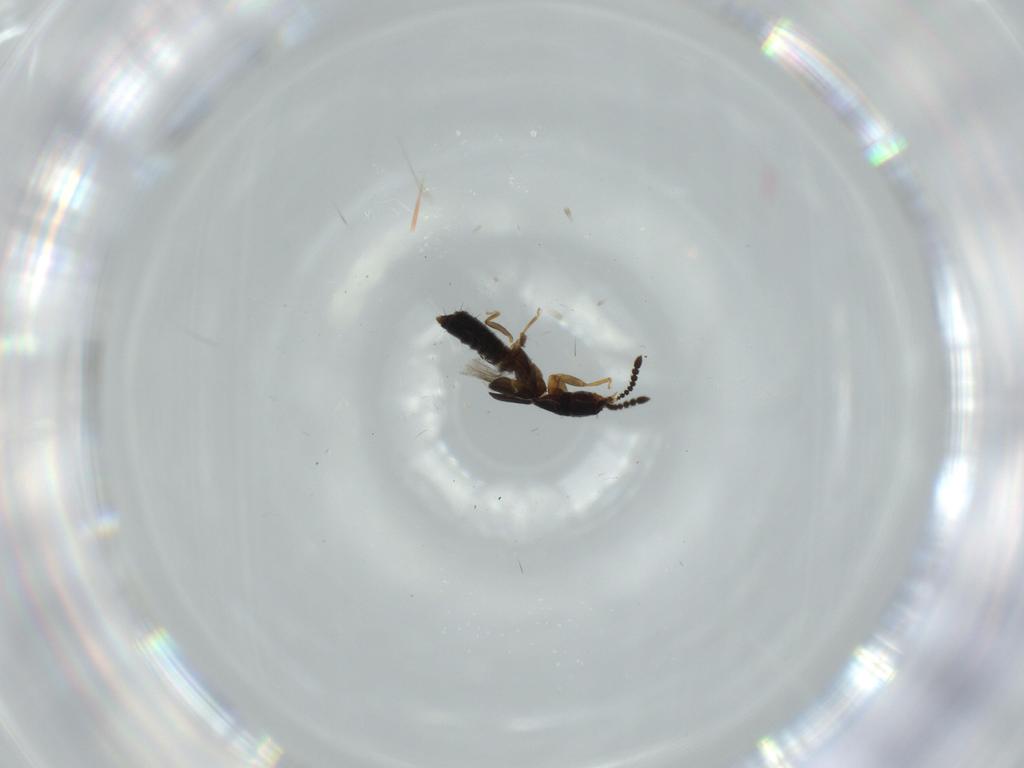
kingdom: Animalia
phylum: Arthropoda
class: Insecta
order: Coleoptera
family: Staphylinidae
